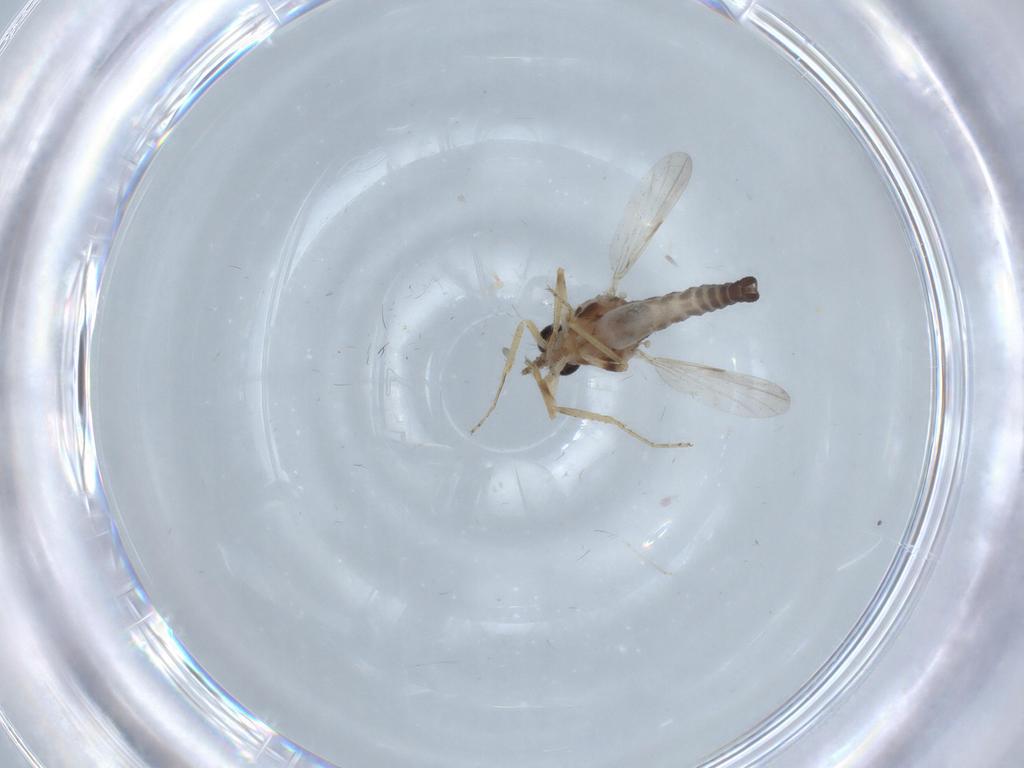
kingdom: Animalia
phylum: Arthropoda
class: Insecta
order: Diptera
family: Ceratopogonidae
